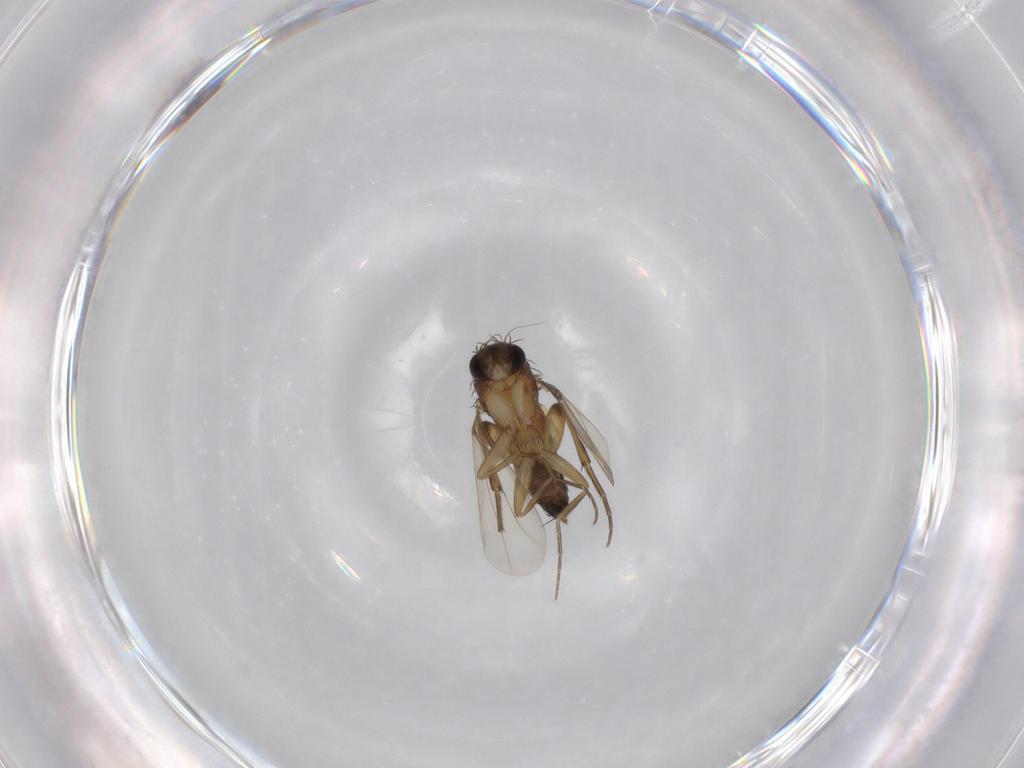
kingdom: Animalia
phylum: Arthropoda
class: Insecta
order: Diptera
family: Phoridae
